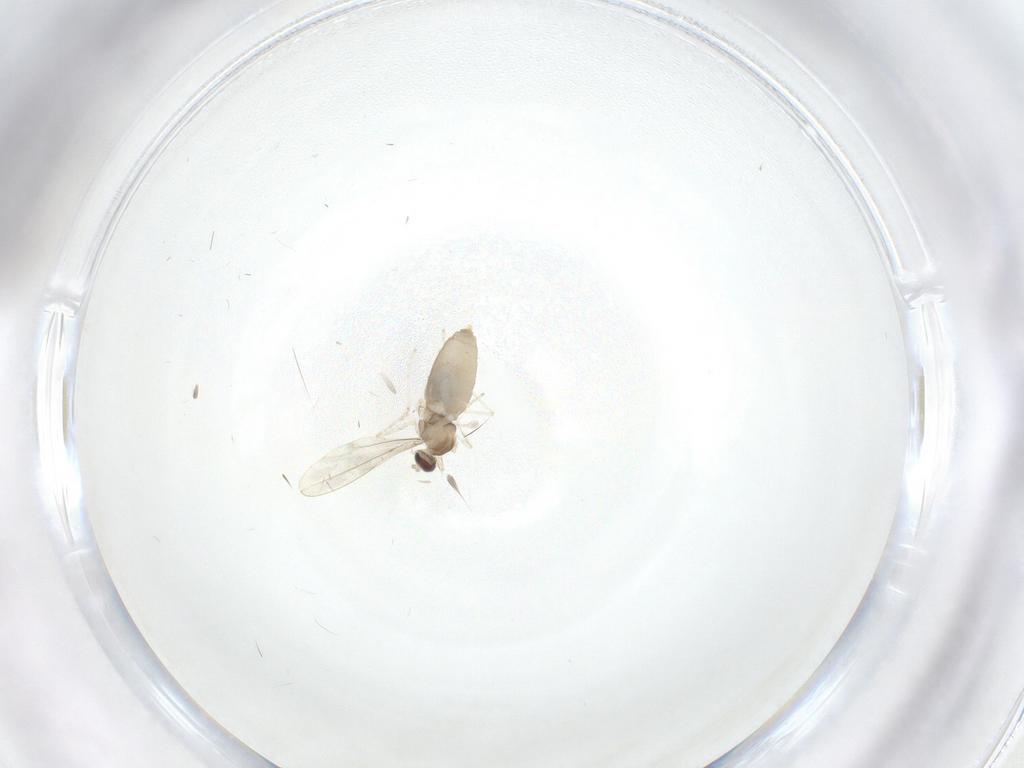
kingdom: Animalia
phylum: Arthropoda
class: Insecta
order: Diptera
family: Cecidomyiidae
